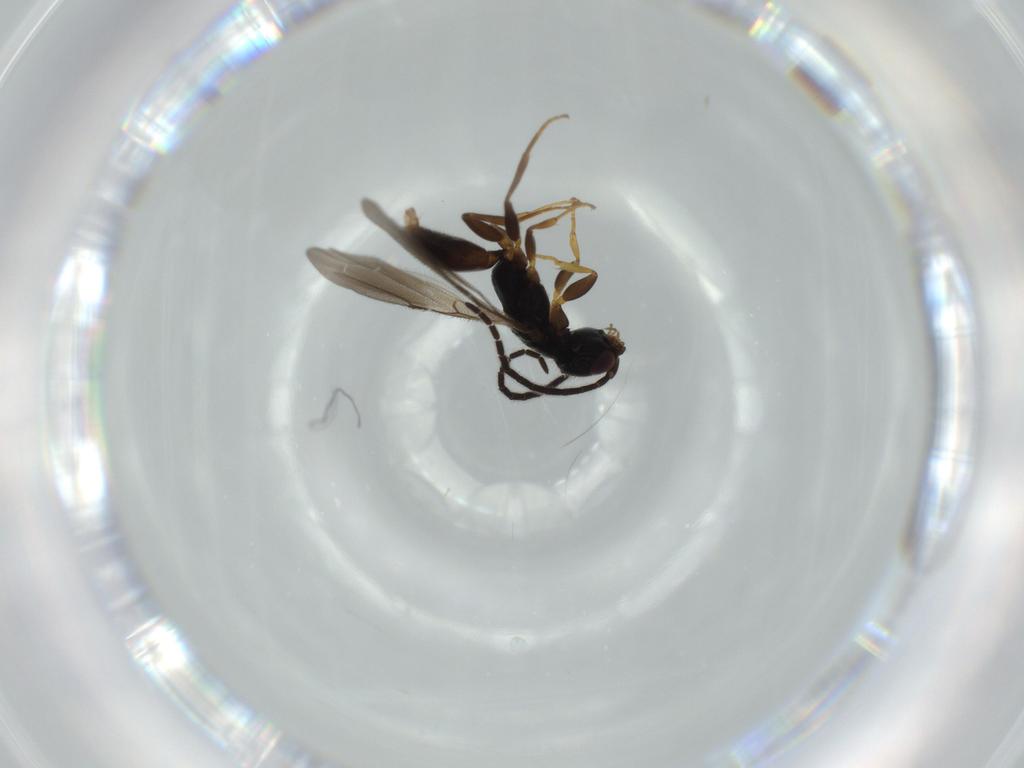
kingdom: Animalia
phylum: Arthropoda
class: Insecta
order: Hymenoptera
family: Bethylidae
